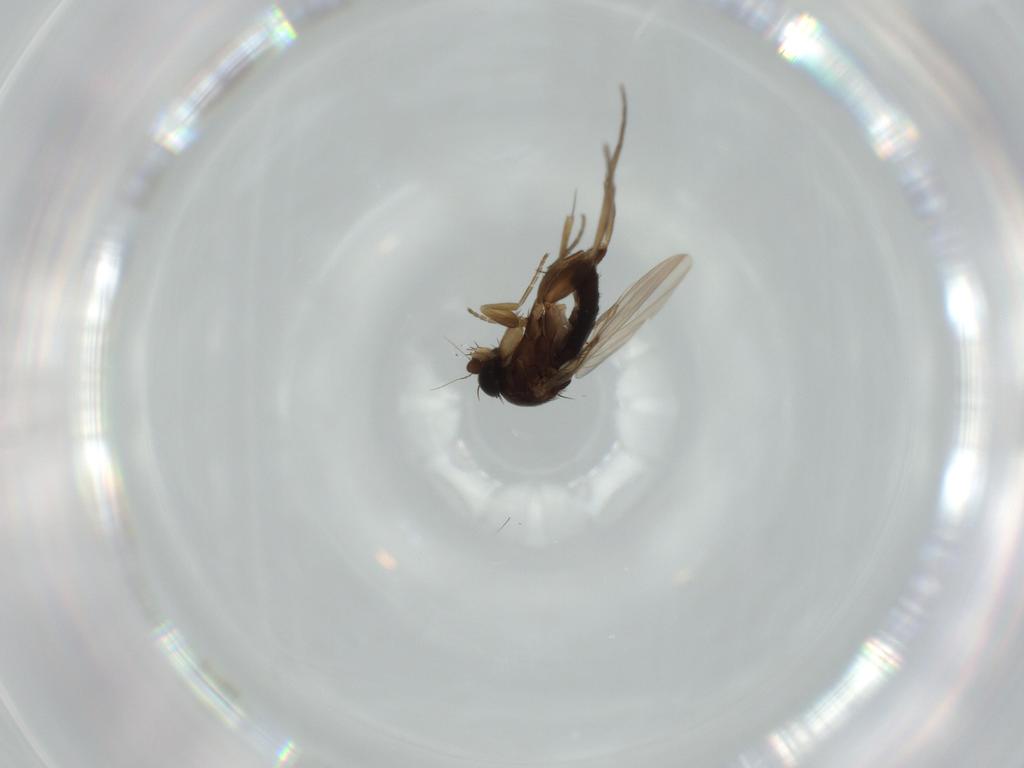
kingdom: Animalia
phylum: Arthropoda
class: Insecta
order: Diptera
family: Phoridae
